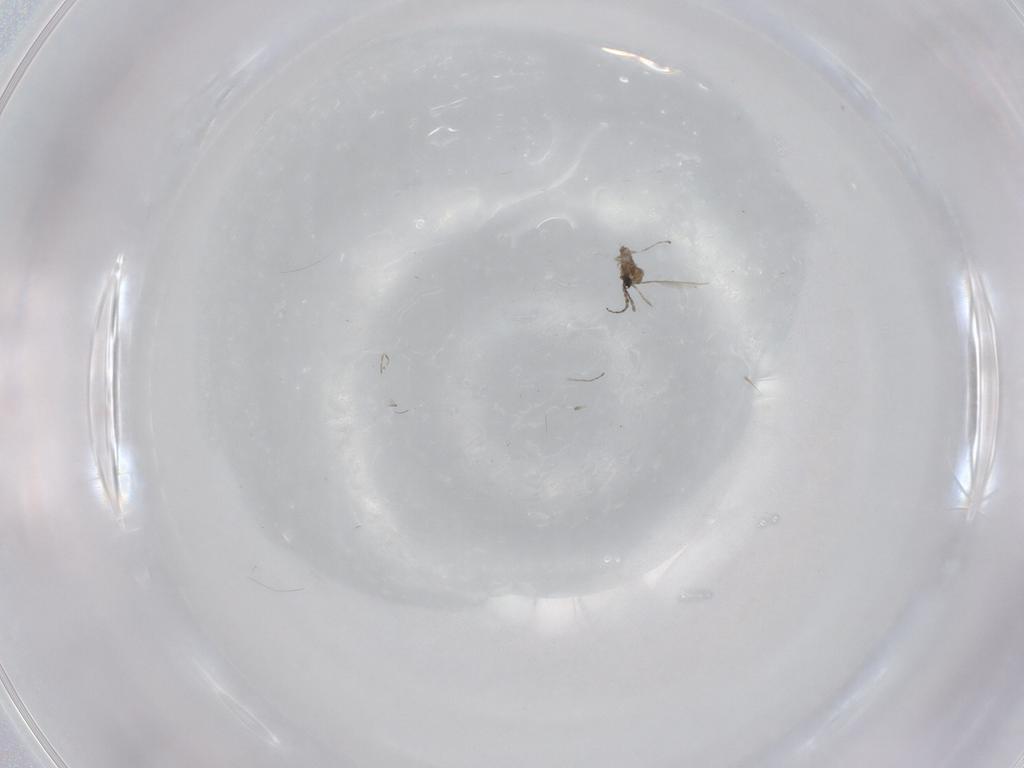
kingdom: Animalia
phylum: Arthropoda
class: Insecta
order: Diptera
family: Cecidomyiidae
